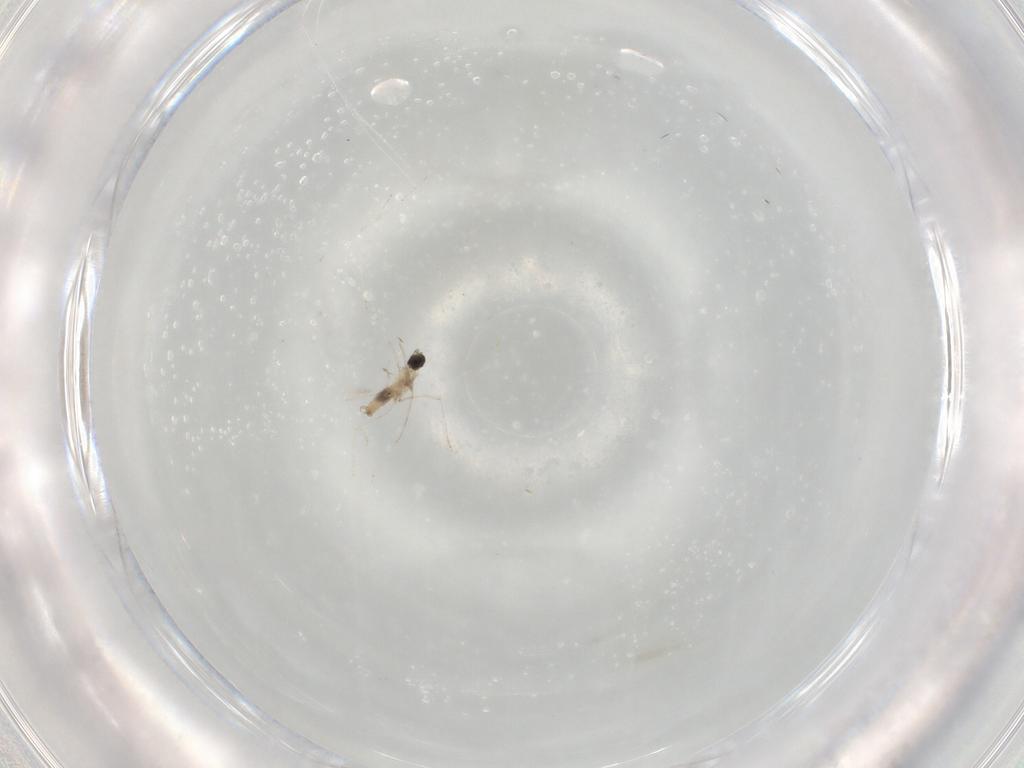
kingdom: Animalia
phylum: Arthropoda
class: Insecta
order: Diptera
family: Cecidomyiidae
